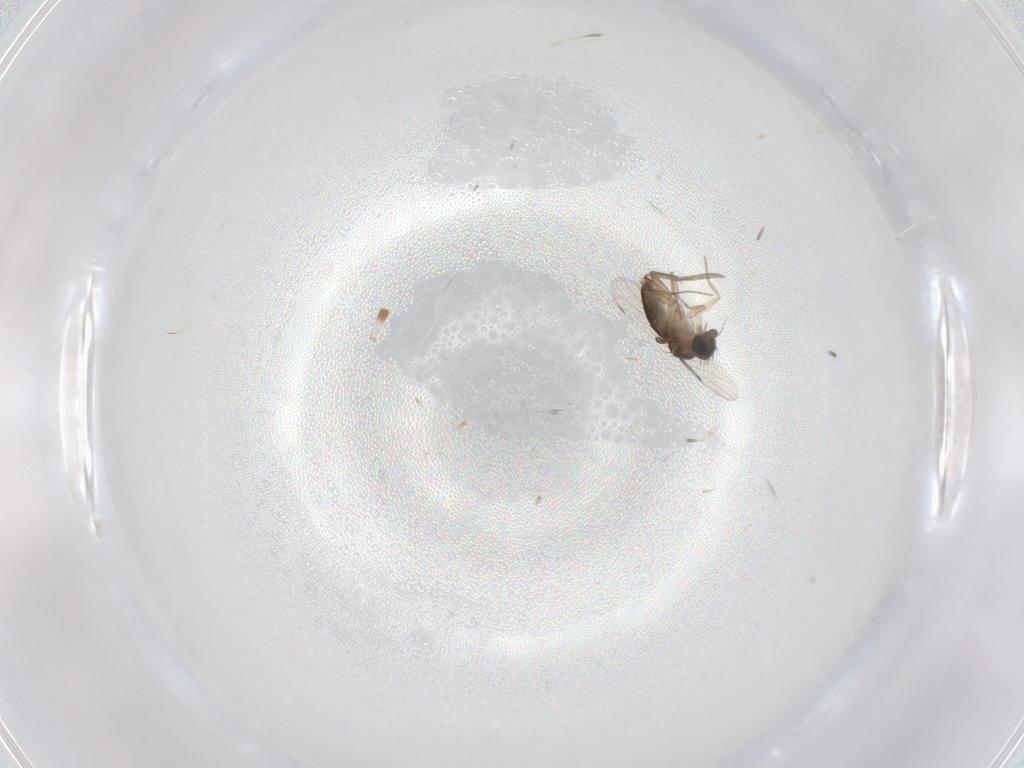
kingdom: Animalia
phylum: Arthropoda
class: Insecta
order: Diptera
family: Phoridae
